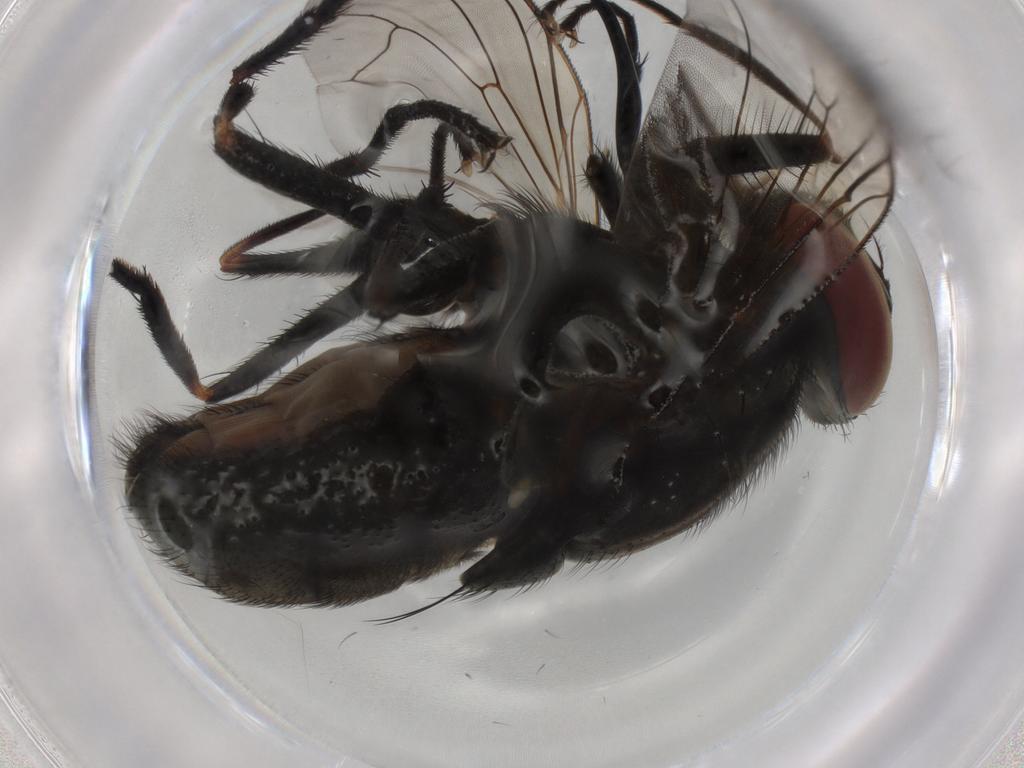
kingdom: Animalia
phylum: Arthropoda
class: Insecta
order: Diptera
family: Muscidae
